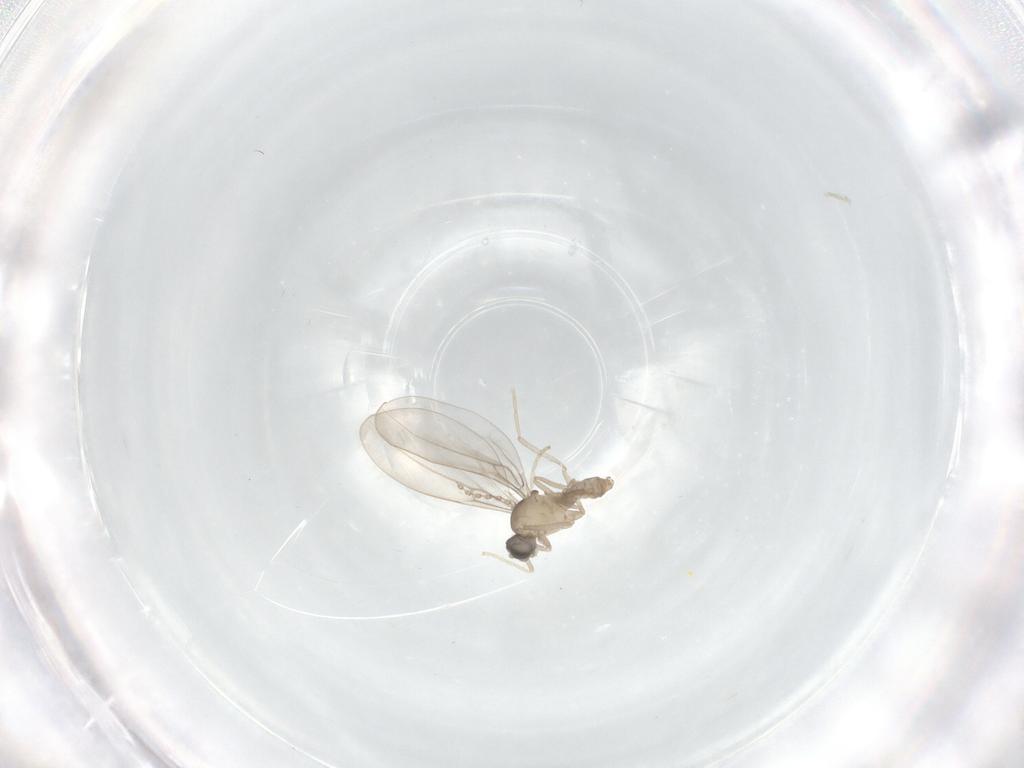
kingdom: Animalia
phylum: Arthropoda
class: Insecta
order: Diptera
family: Cecidomyiidae
